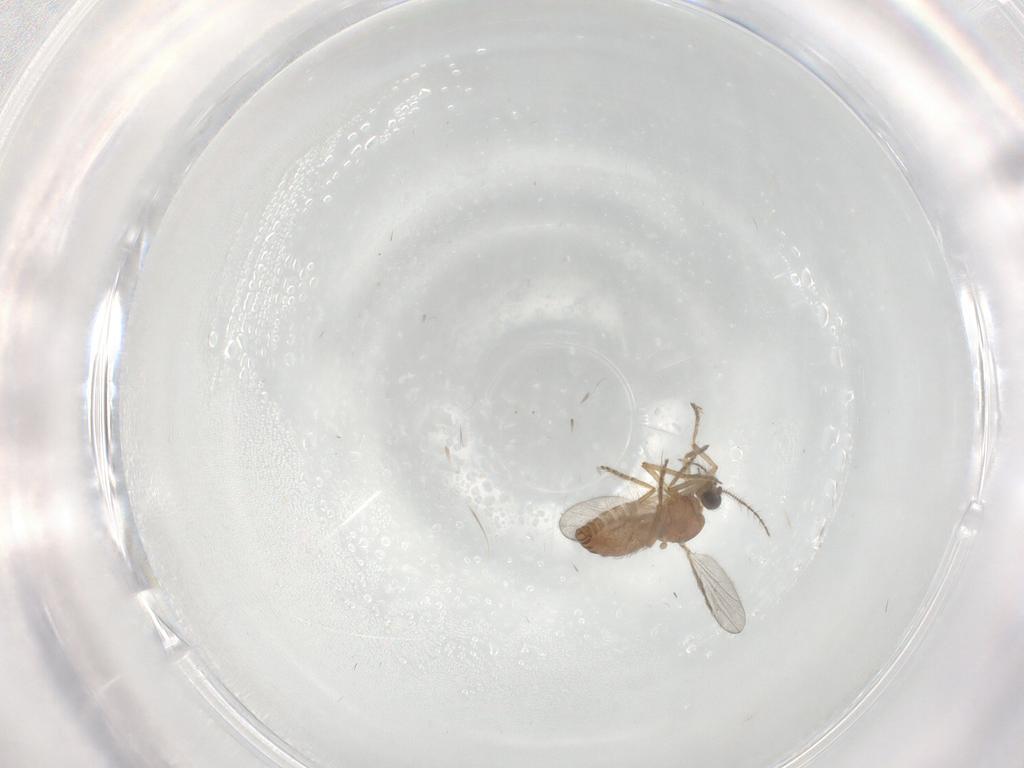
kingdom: Animalia
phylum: Arthropoda
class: Insecta
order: Diptera
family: Ceratopogonidae
